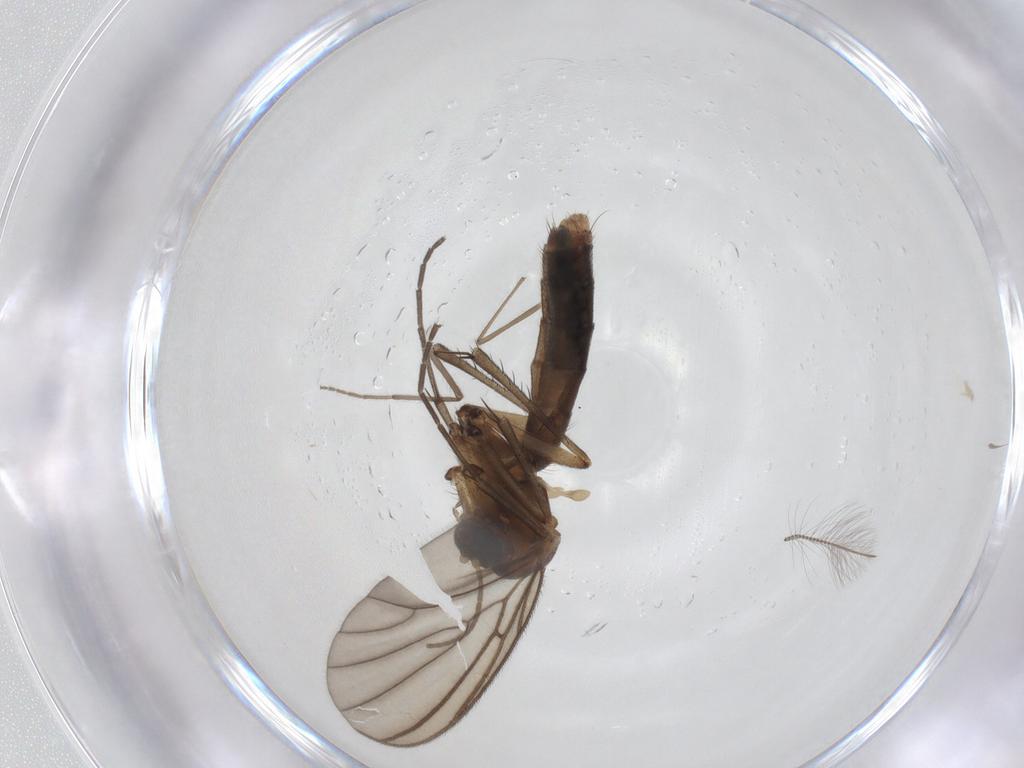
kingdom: Animalia
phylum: Arthropoda
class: Insecta
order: Diptera
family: Chironomidae
